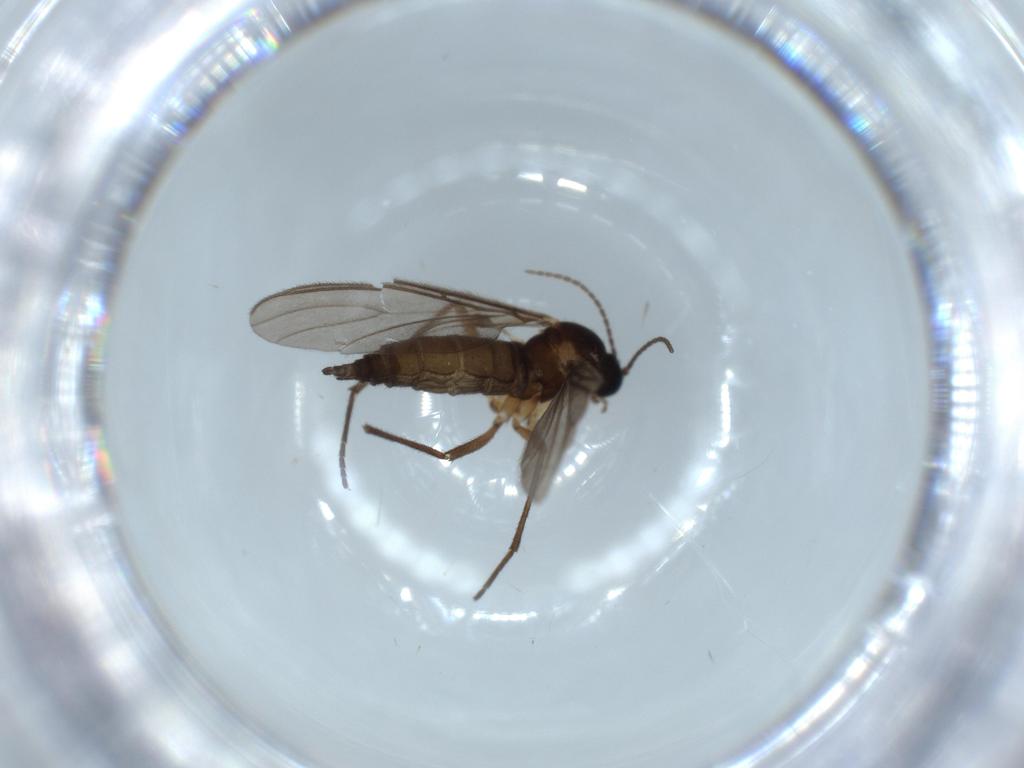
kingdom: Animalia
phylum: Arthropoda
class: Insecta
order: Diptera
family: Sciaridae
